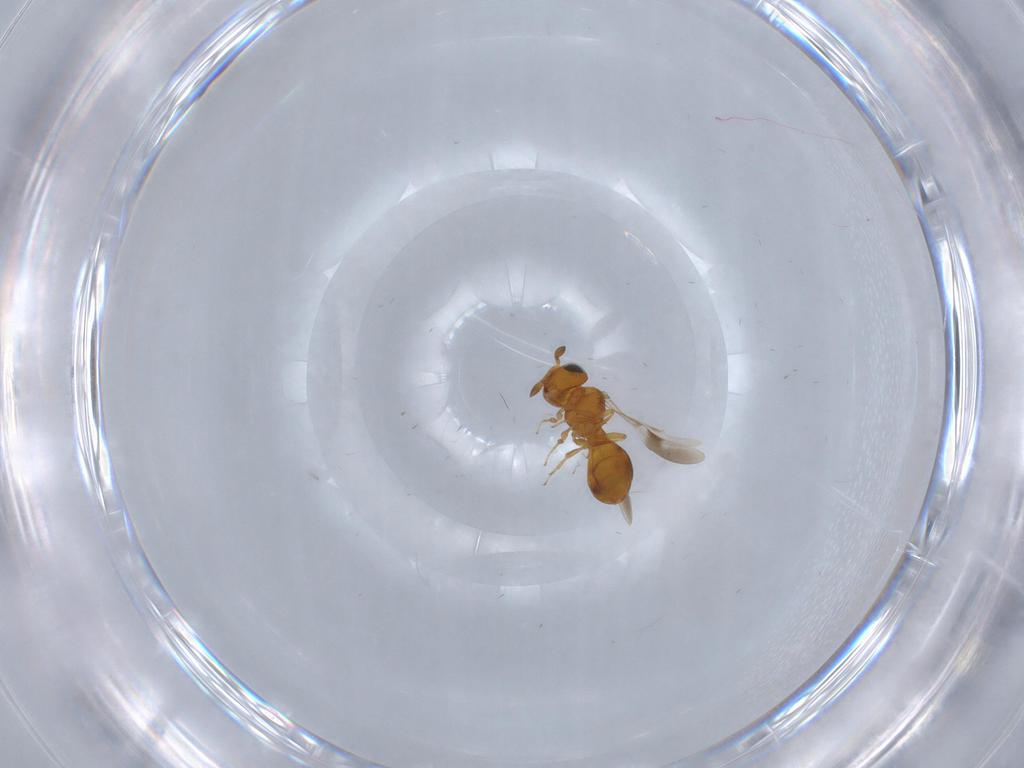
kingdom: Animalia
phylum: Arthropoda
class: Insecta
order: Hymenoptera
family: Scelionidae
